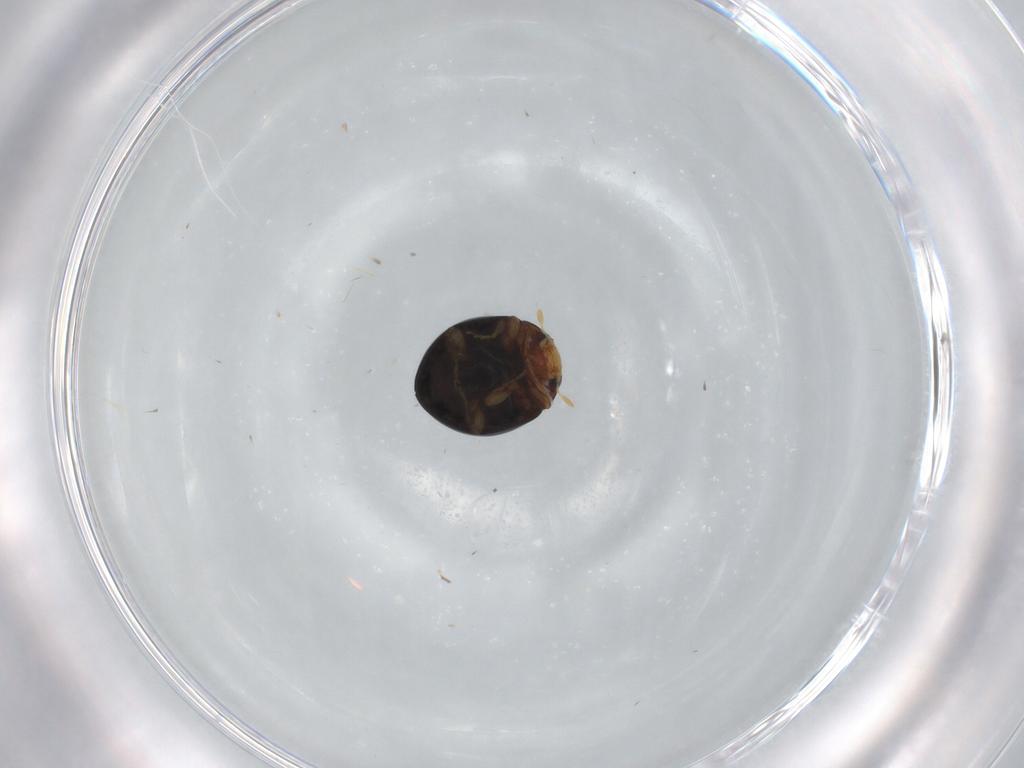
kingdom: Animalia
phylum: Arthropoda
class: Insecta
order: Coleoptera
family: Coccinellidae
